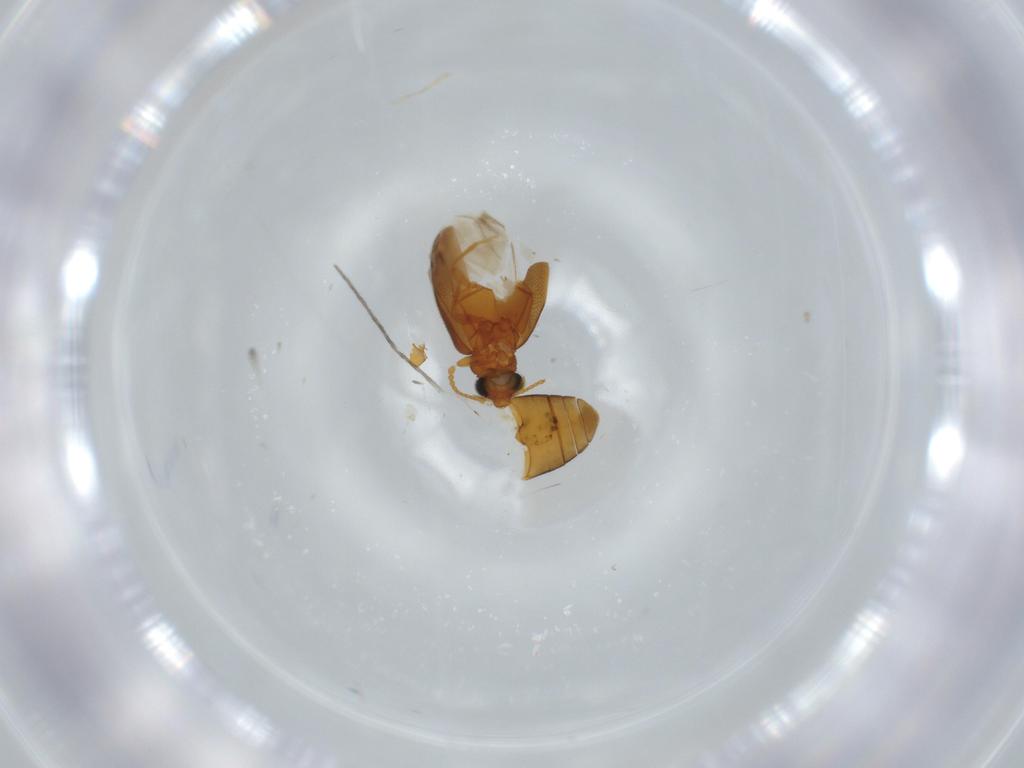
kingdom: Animalia
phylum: Arthropoda
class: Insecta
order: Coleoptera
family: Aderidae
